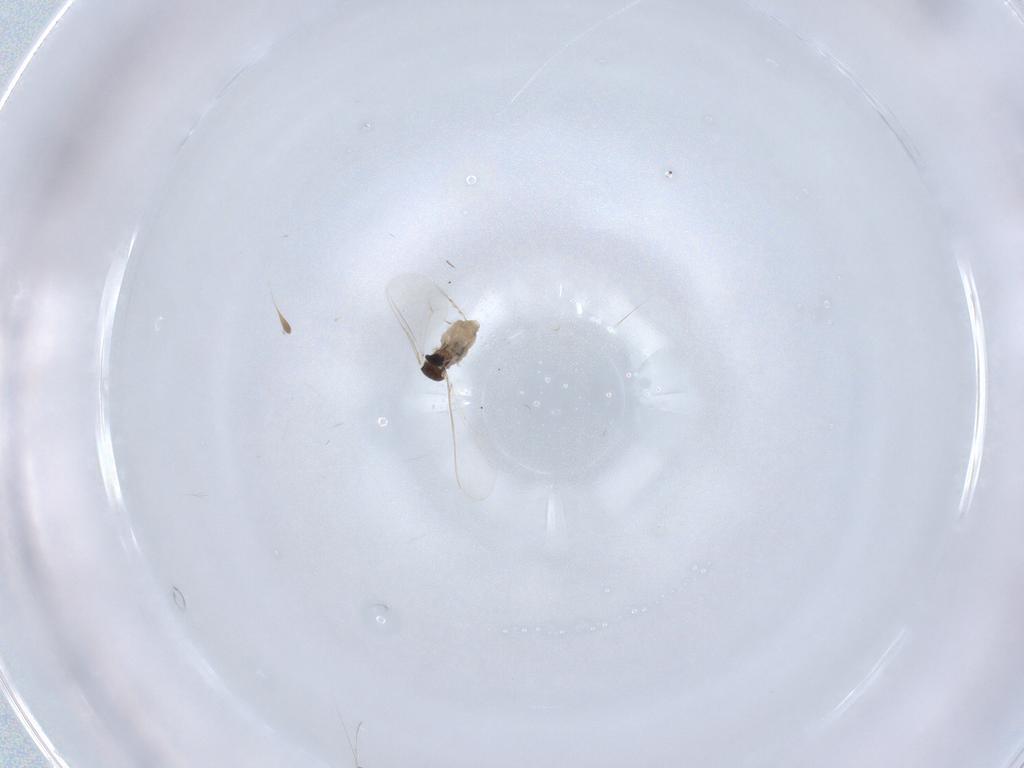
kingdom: Animalia
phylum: Arthropoda
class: Insecta
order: Diptera
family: Cecidomyiidae
